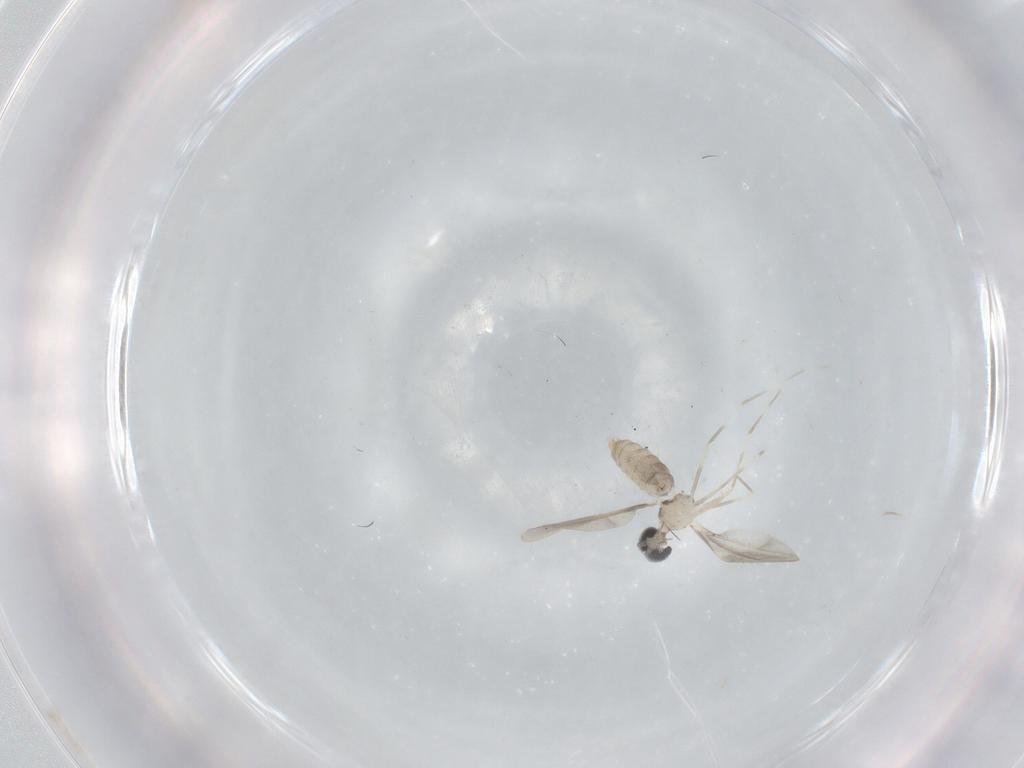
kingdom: Animalia
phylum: Arthropoda
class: Insecta
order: Diptera
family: Cecidomyiidae
